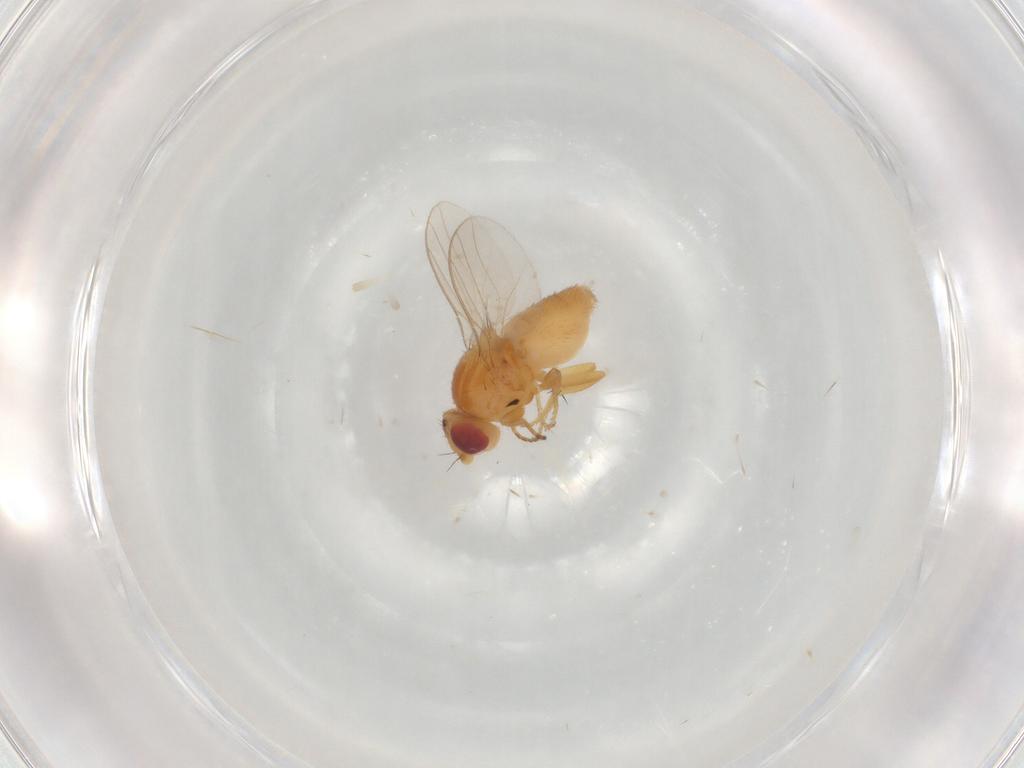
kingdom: Animalia
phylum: Arthropoda
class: Insecta
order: Diptera
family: Chloropidae
